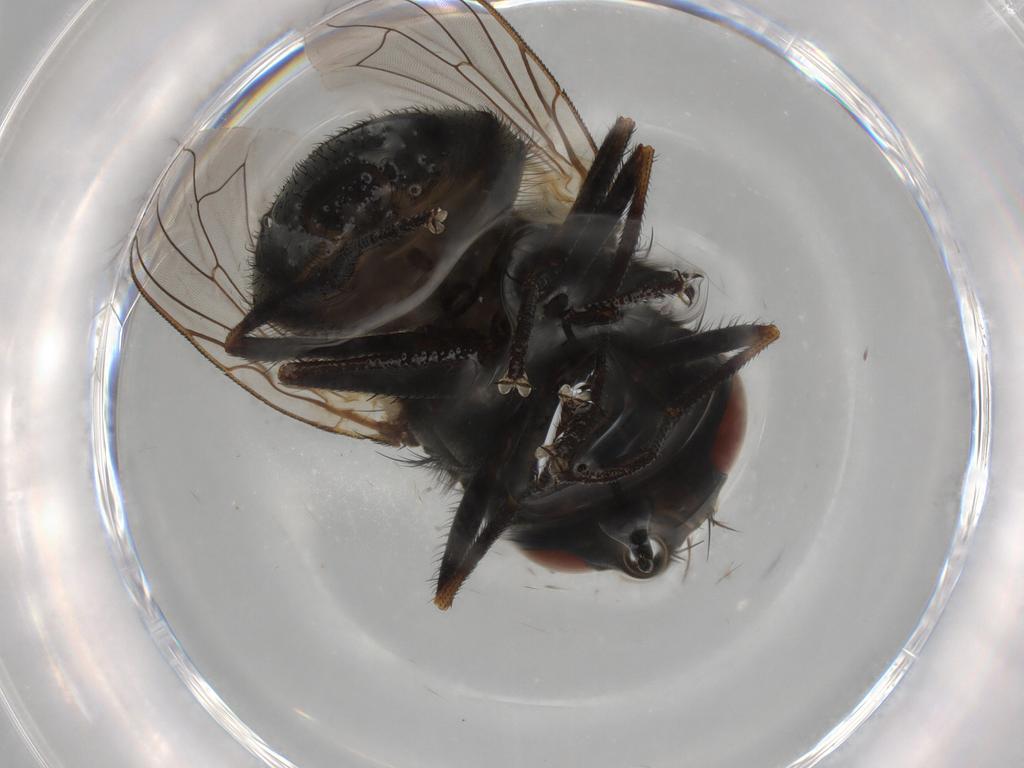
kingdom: Animalia
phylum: Arthropoda
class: Insecta
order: Diptera
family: Muscidae
